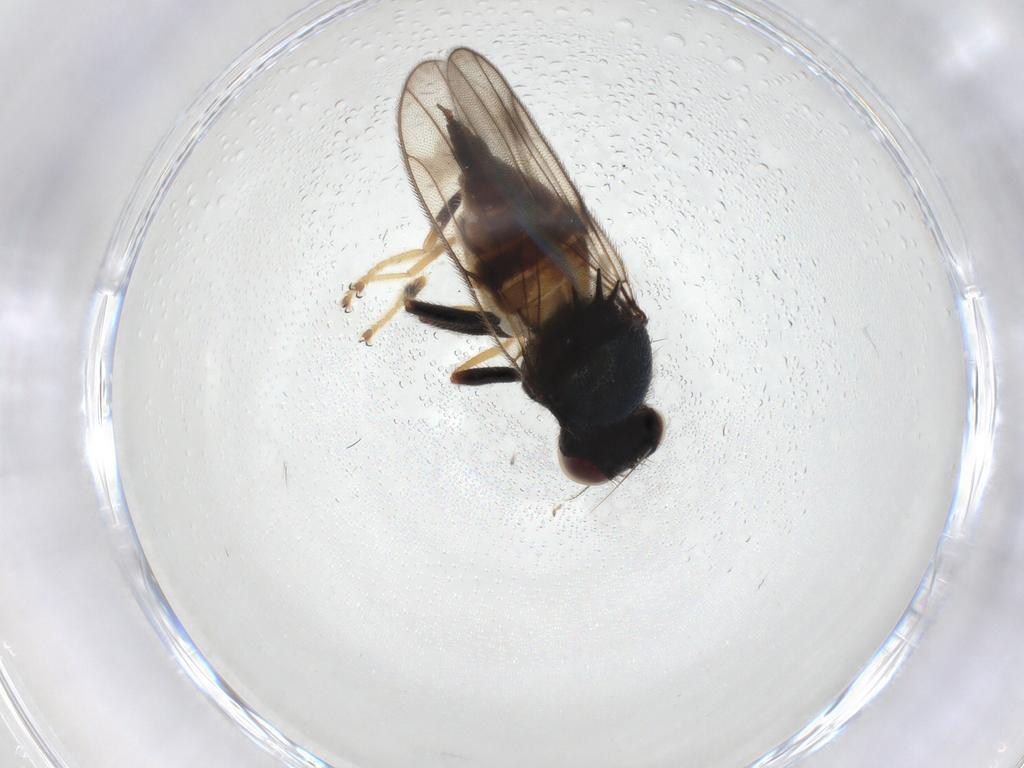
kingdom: Animalia
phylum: Arthropoda
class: Insecta
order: Diptera
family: Chloropidae
